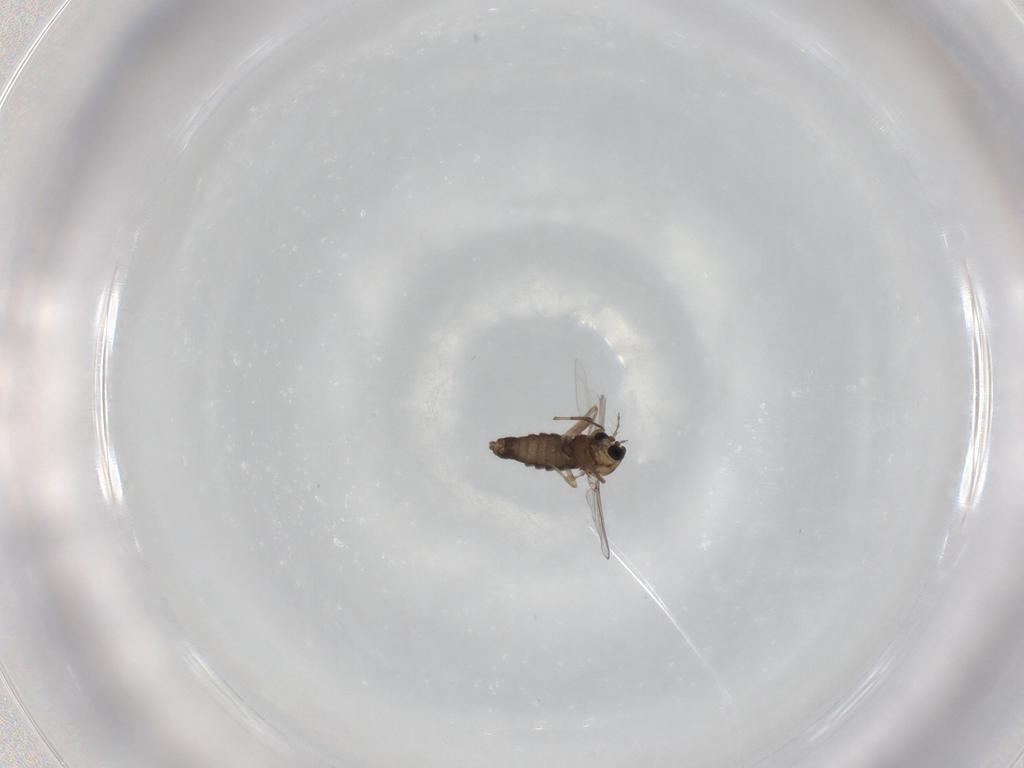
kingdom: Animalia
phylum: Arthropoda
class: Insecta
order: Diptera
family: Chironomidae
